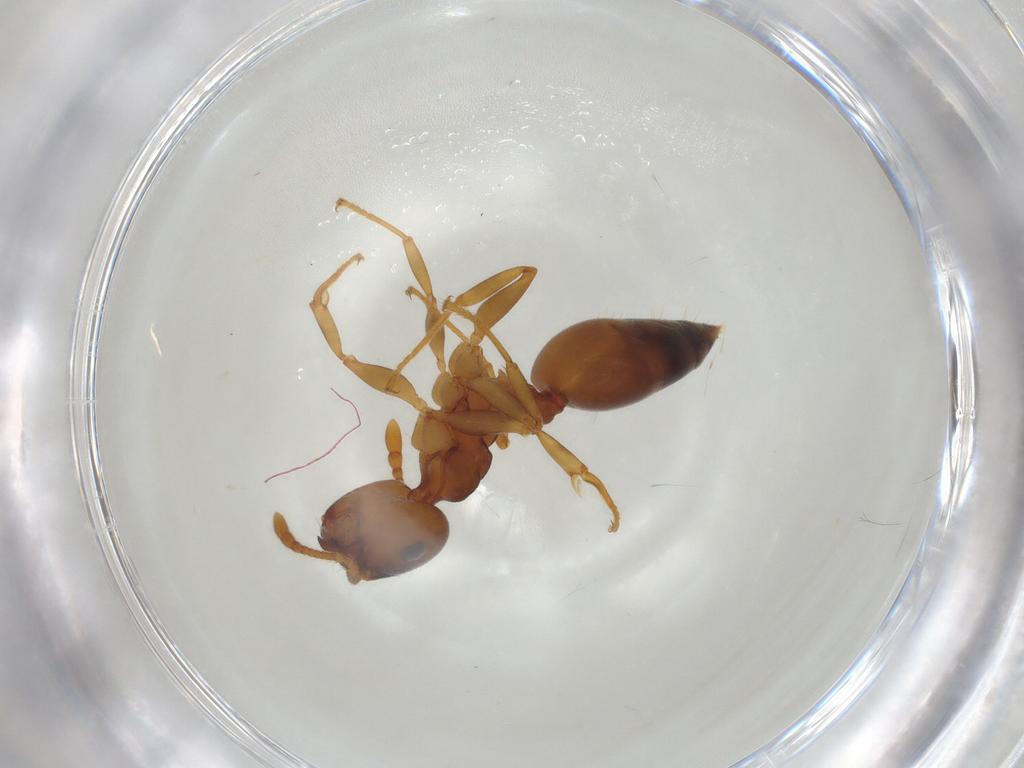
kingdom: Animalia
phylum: Arthropoda
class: Insecta
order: Hymenoptera
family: Formicidae
